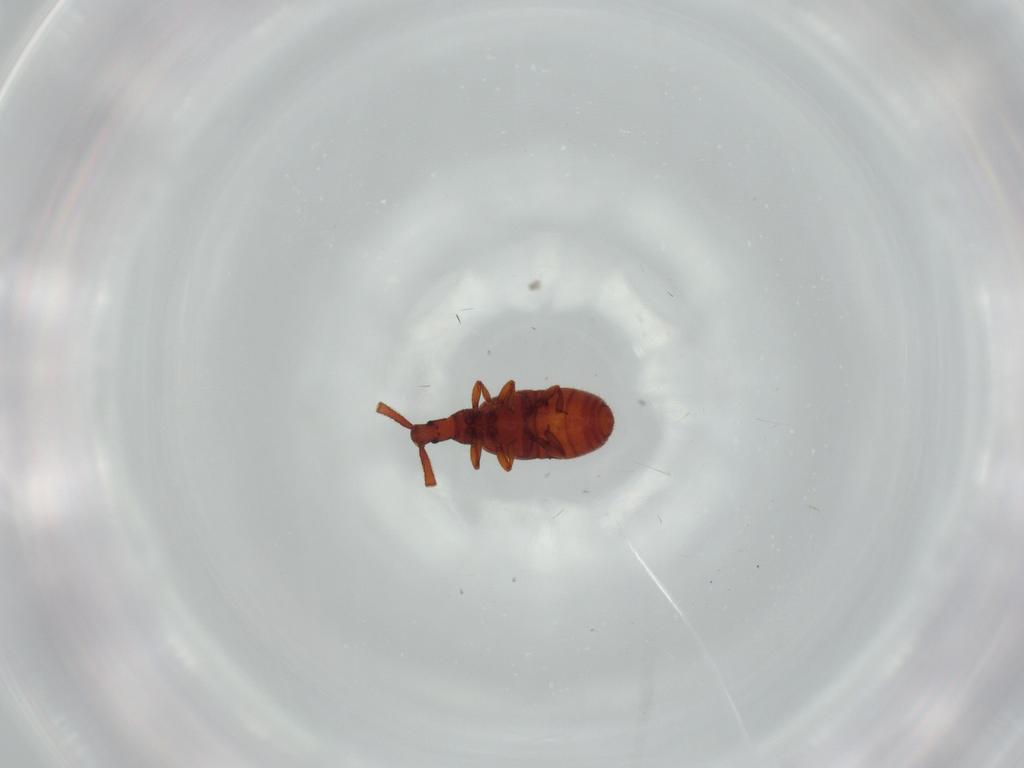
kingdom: Animalia
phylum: Arthropoda
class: Insecta
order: Coleoptera
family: Staphylinidae
